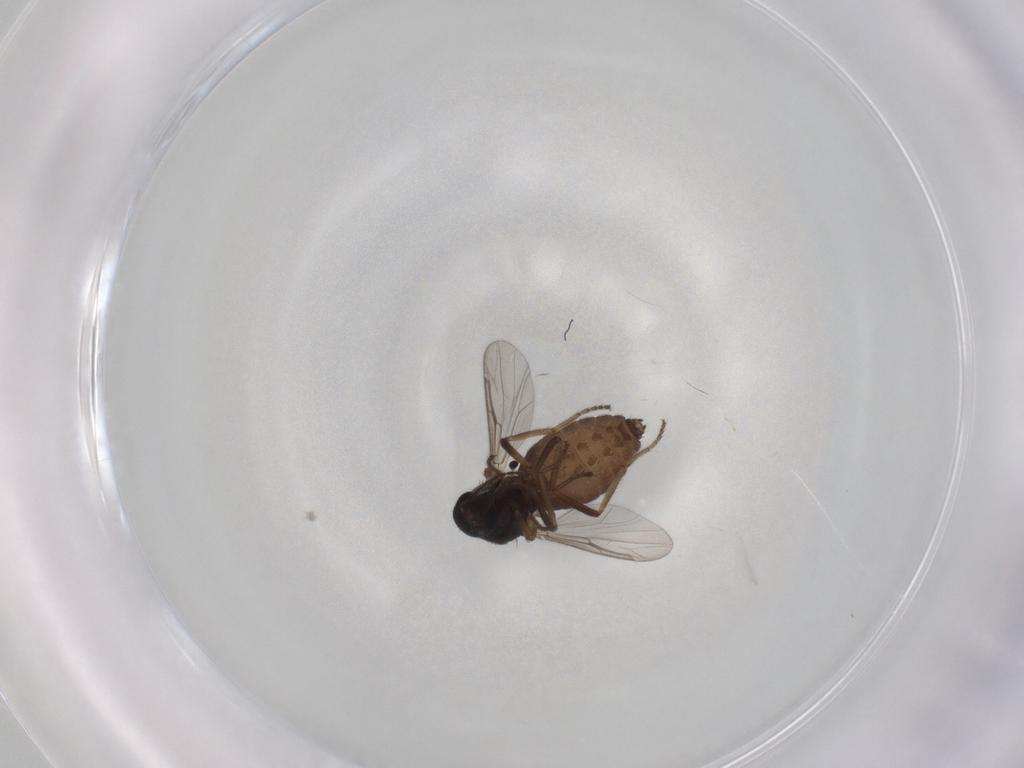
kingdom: Animalia
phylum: Arthropoda
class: Insecta
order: Diptera
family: Ceratopogonidae
